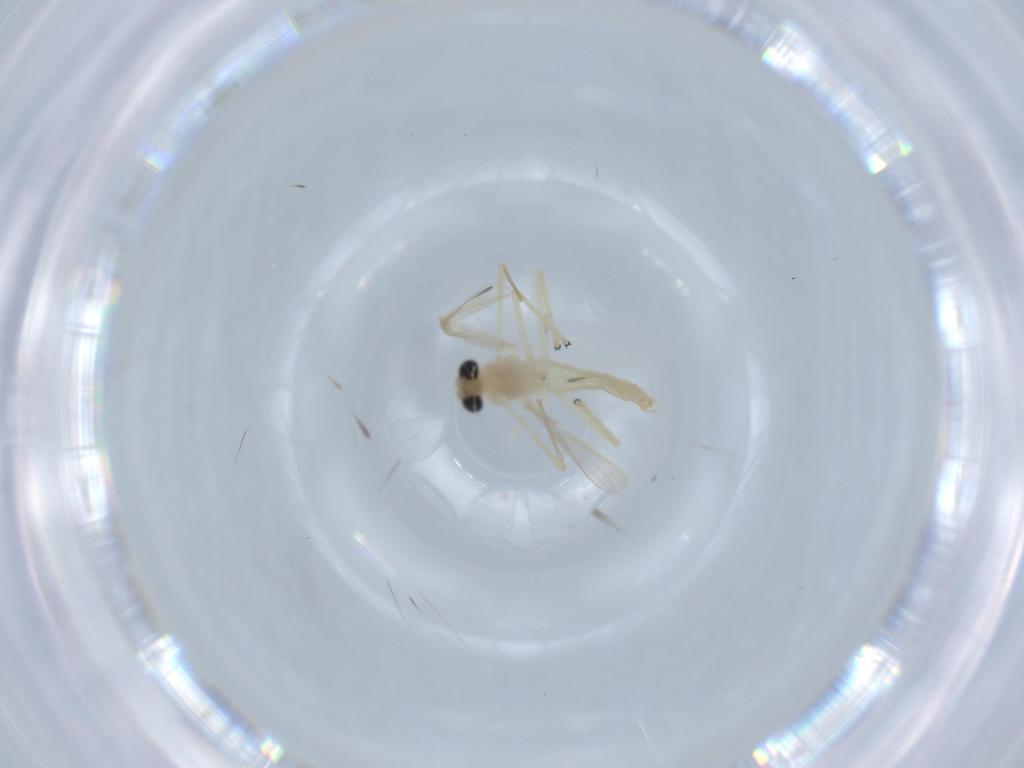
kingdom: Animalia
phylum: Arthropoda
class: Insecta
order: Diptera
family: Chironomidae
